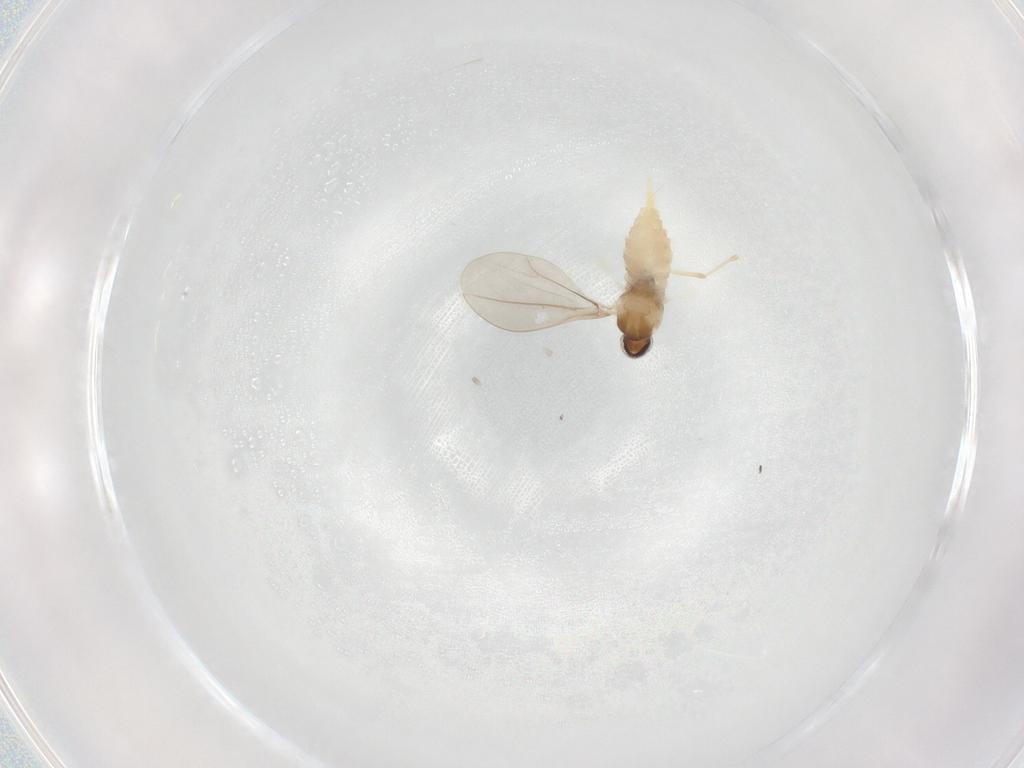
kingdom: Animalia
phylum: Arthropoda
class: Insecta
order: Diptera
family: Cecidomyiidae
